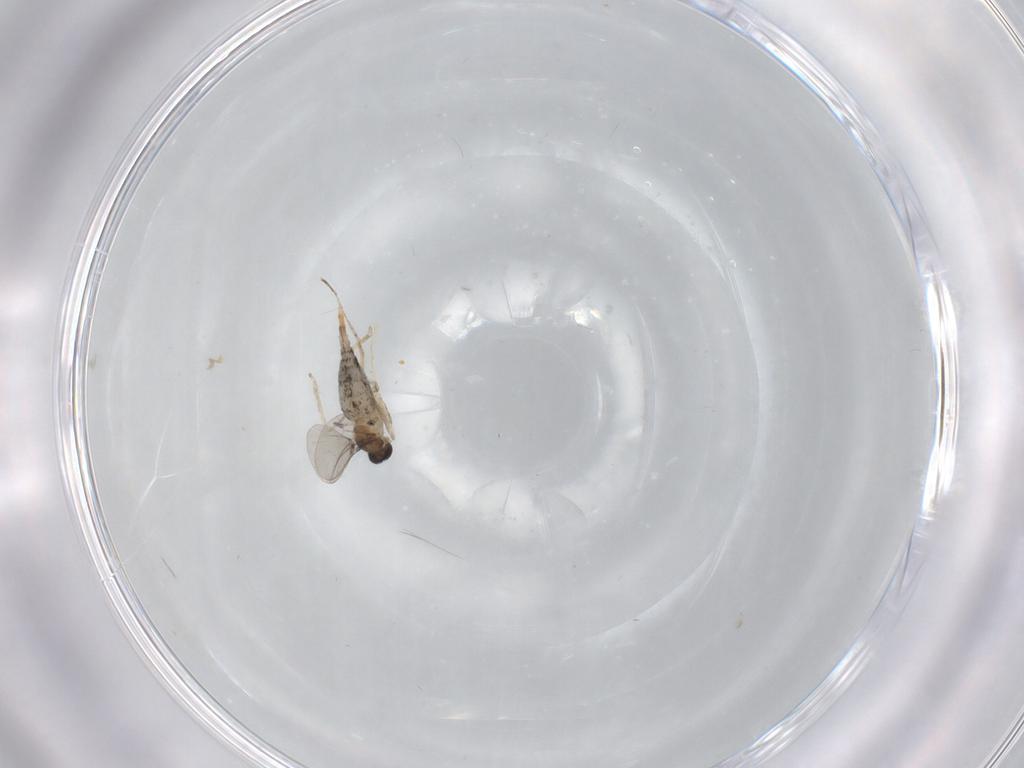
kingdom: Animalia
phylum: Arthropoda
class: Insecta
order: Diptera
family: Cecidomyiidae
